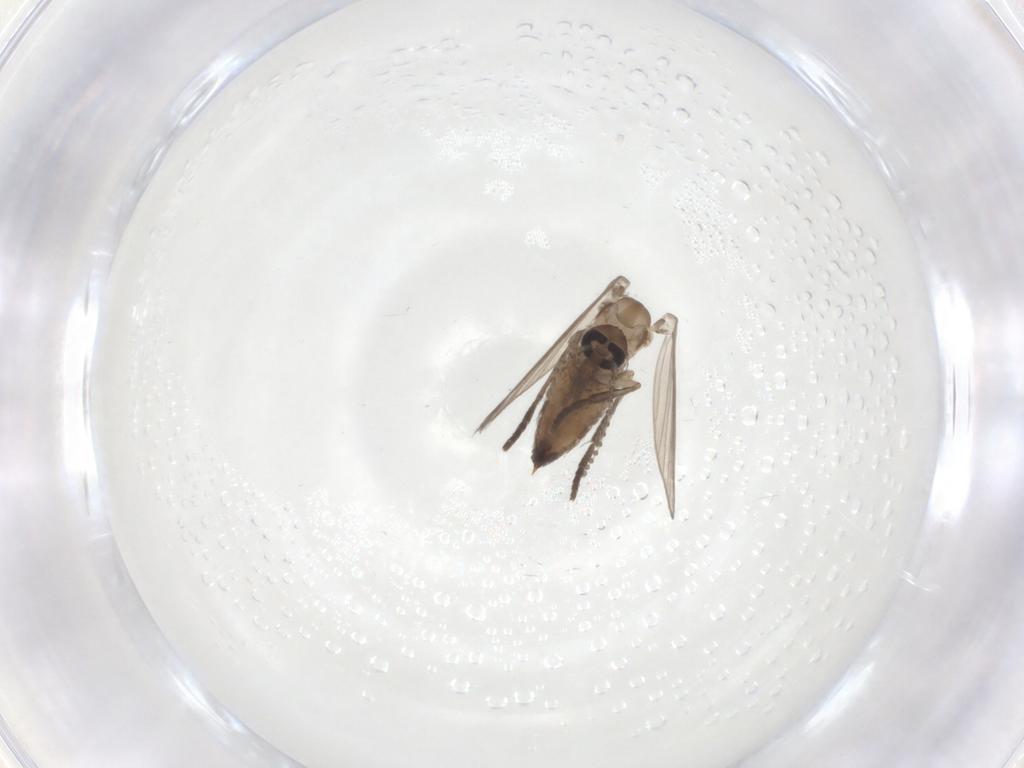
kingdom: Animalia
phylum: Arthropoda
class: Insecta
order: Diptera
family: Psychodidae
